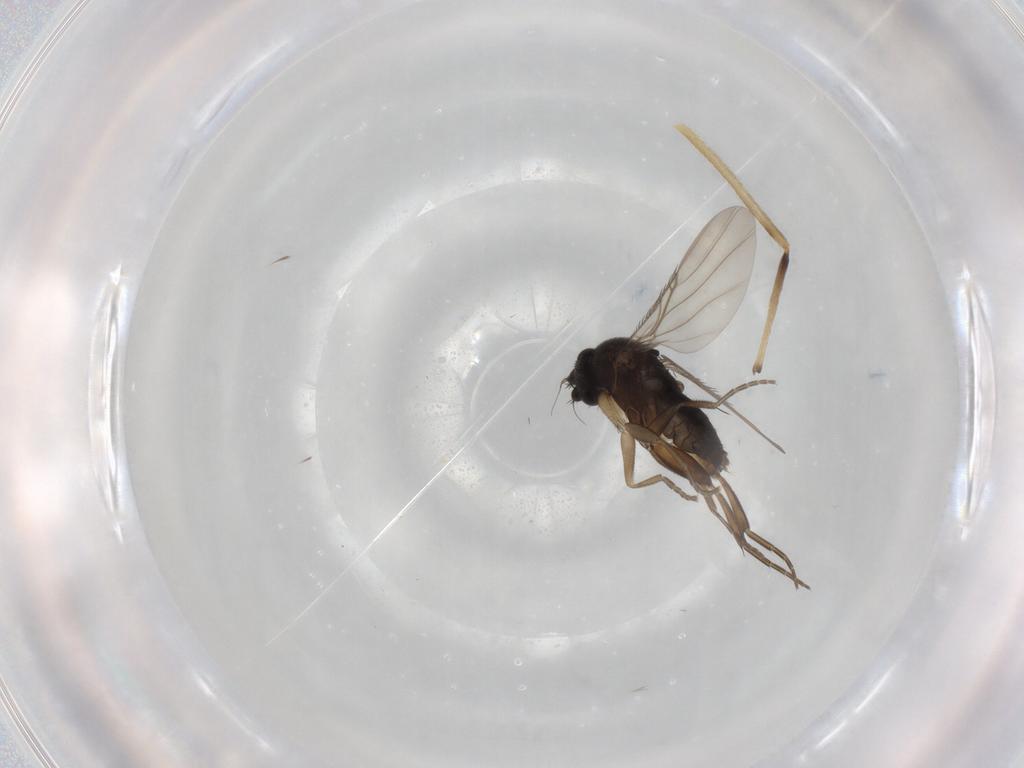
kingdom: Animalia
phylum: Arthropoda
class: Insecta
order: Diptera
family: Phoridae
